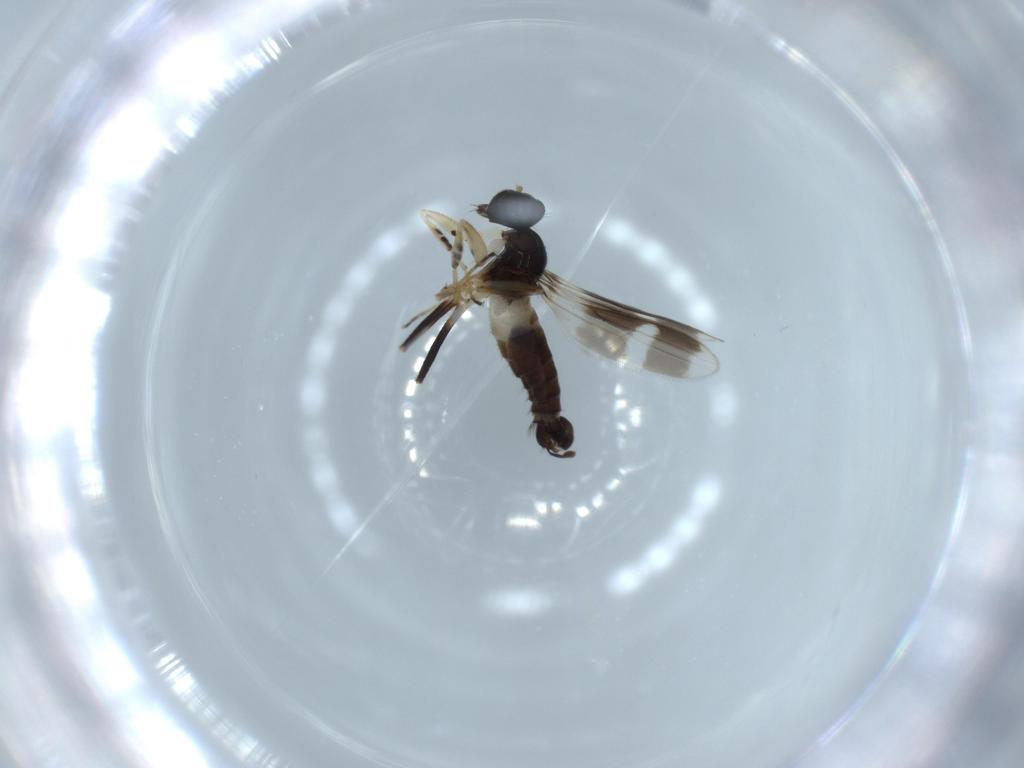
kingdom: Animalia
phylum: Arthropoda
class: Insecta
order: Diptera
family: Hybotidae
